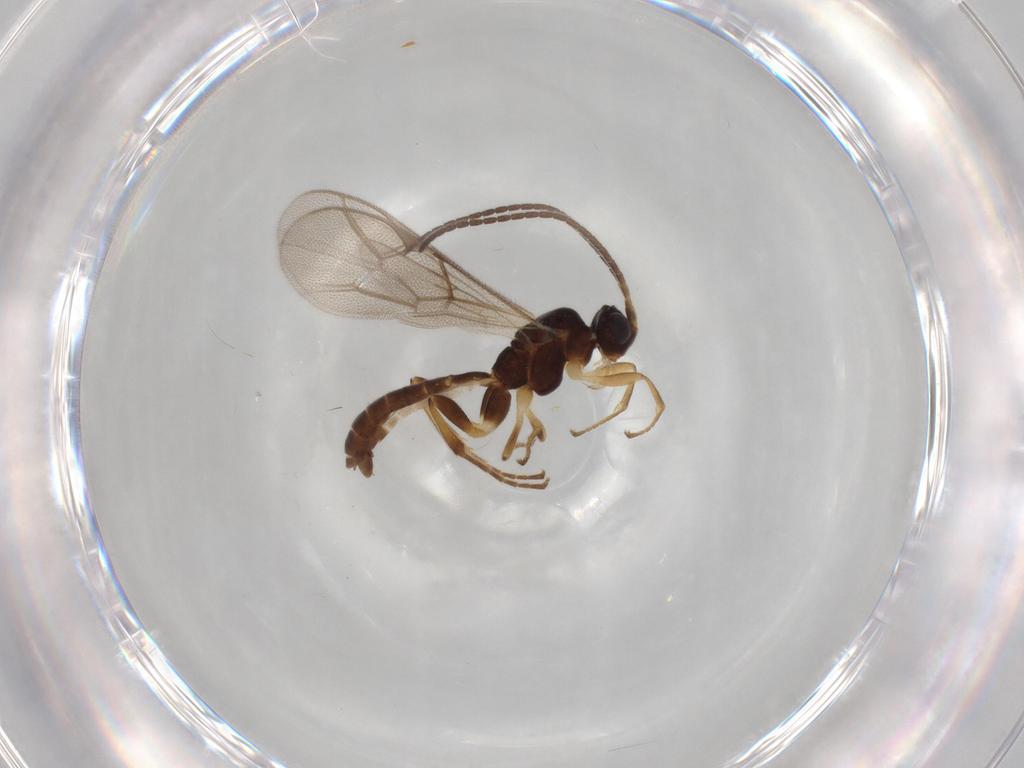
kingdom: Animalia
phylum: Arthropoda
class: Insecta
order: Hymenoptera
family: Ichneumonidae
